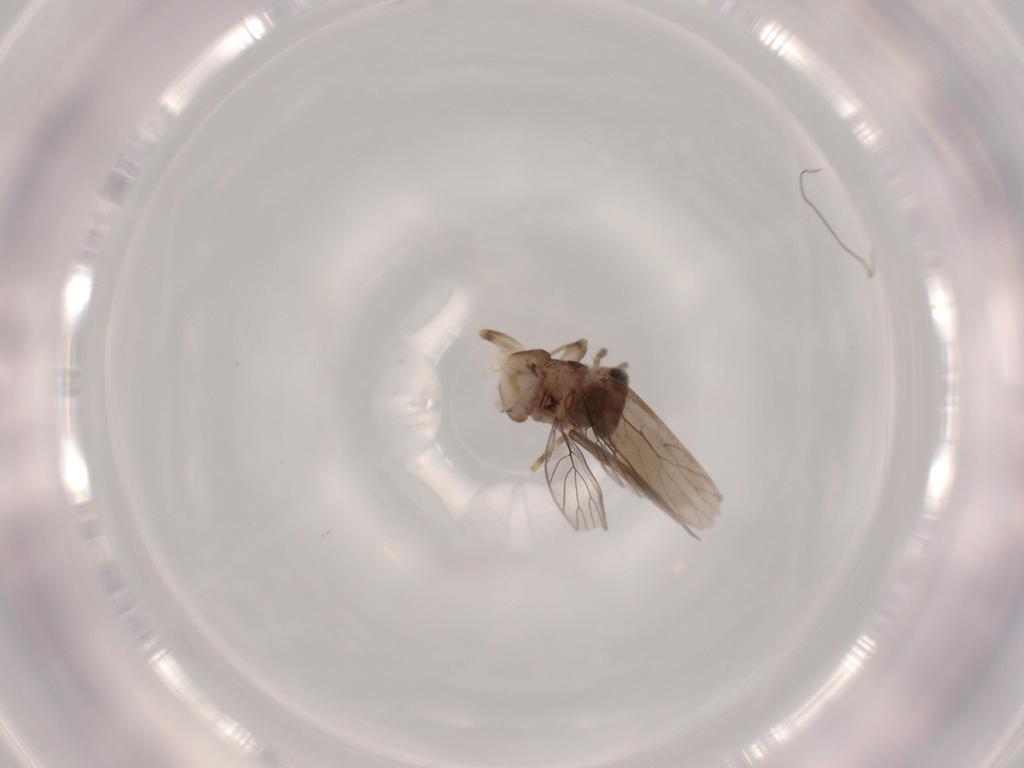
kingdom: Animalia
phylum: Arthropoda
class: Insecta
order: Psocodea
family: Lepidopsocidae
